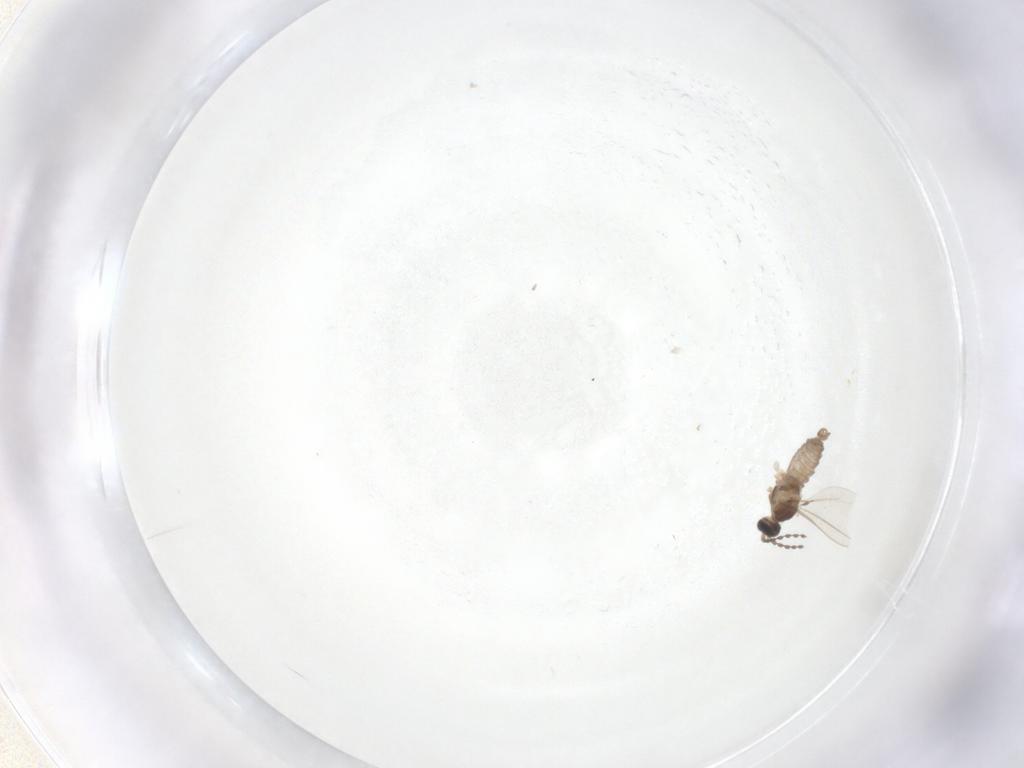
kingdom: Animalia
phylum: Arthropoda
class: Insecta
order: Diptera
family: Cecidomyiidae
